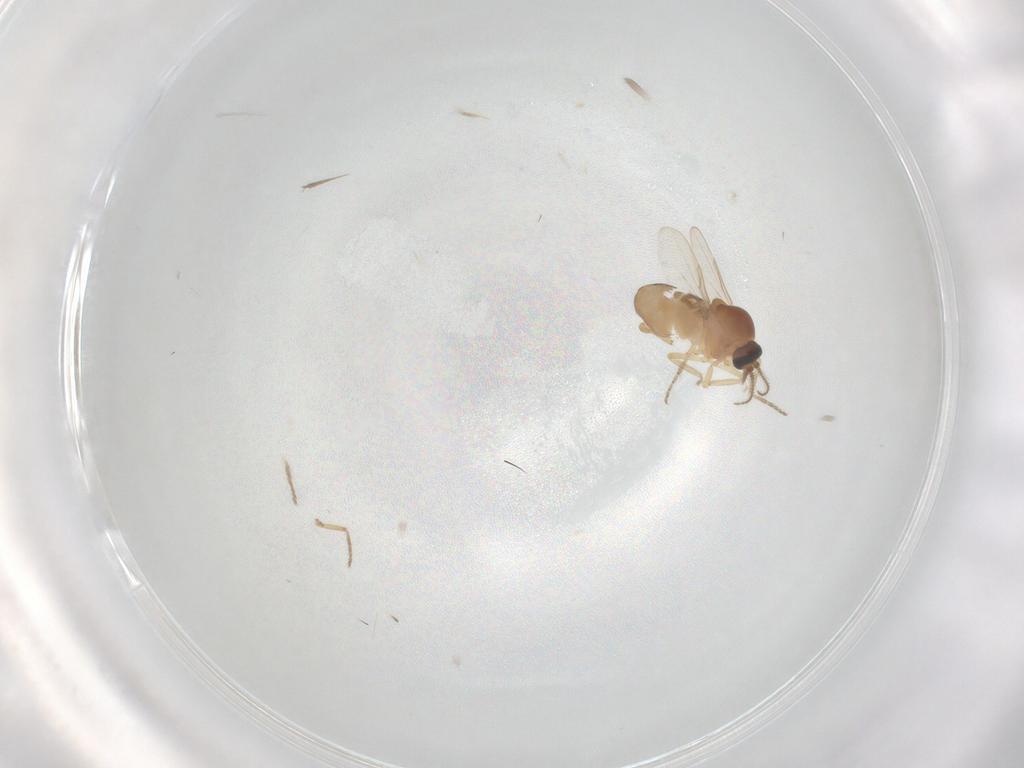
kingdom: Animalia
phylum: Arthropoda
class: Insecta
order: Diptera
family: Ceratopogonidae
